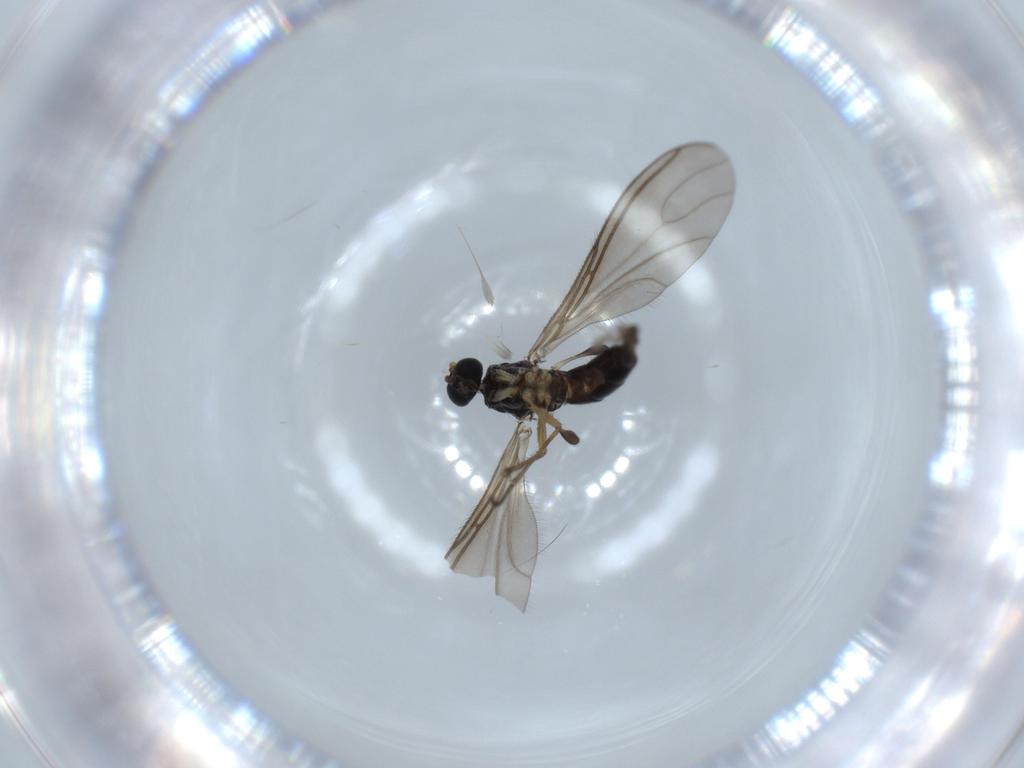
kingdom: Animalia
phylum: Arthropoda
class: Insecta
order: Diptera
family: Sciaridae
